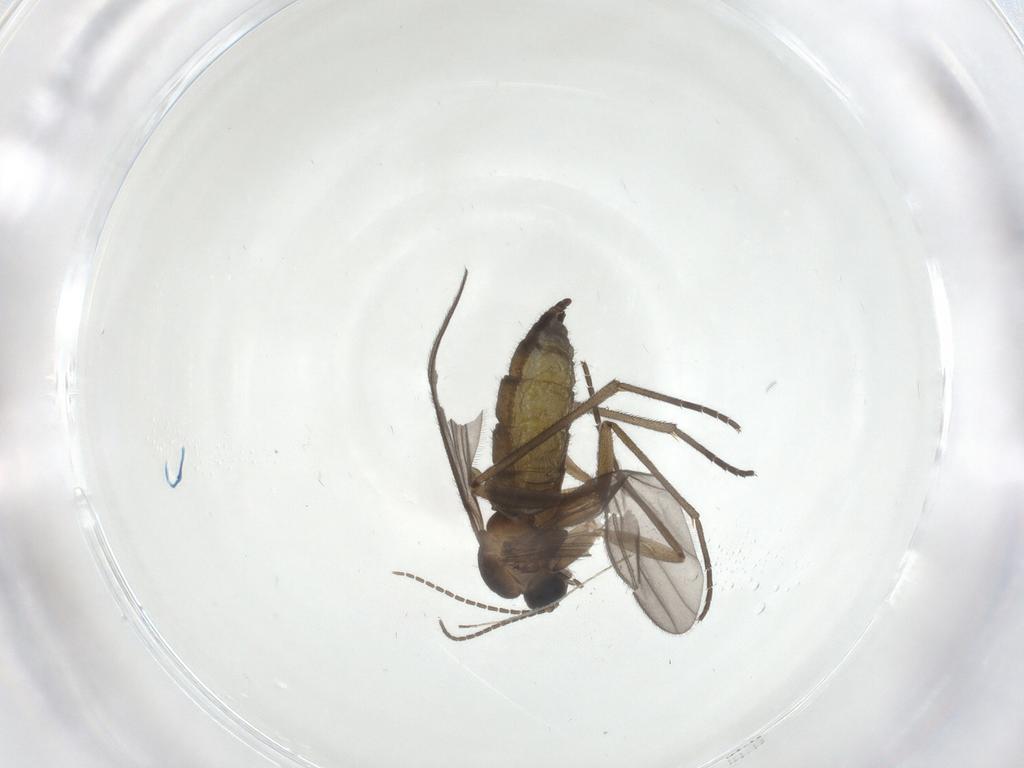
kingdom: Animalia
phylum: Arthropoda
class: Insecta
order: Diptera
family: Sciaridae
